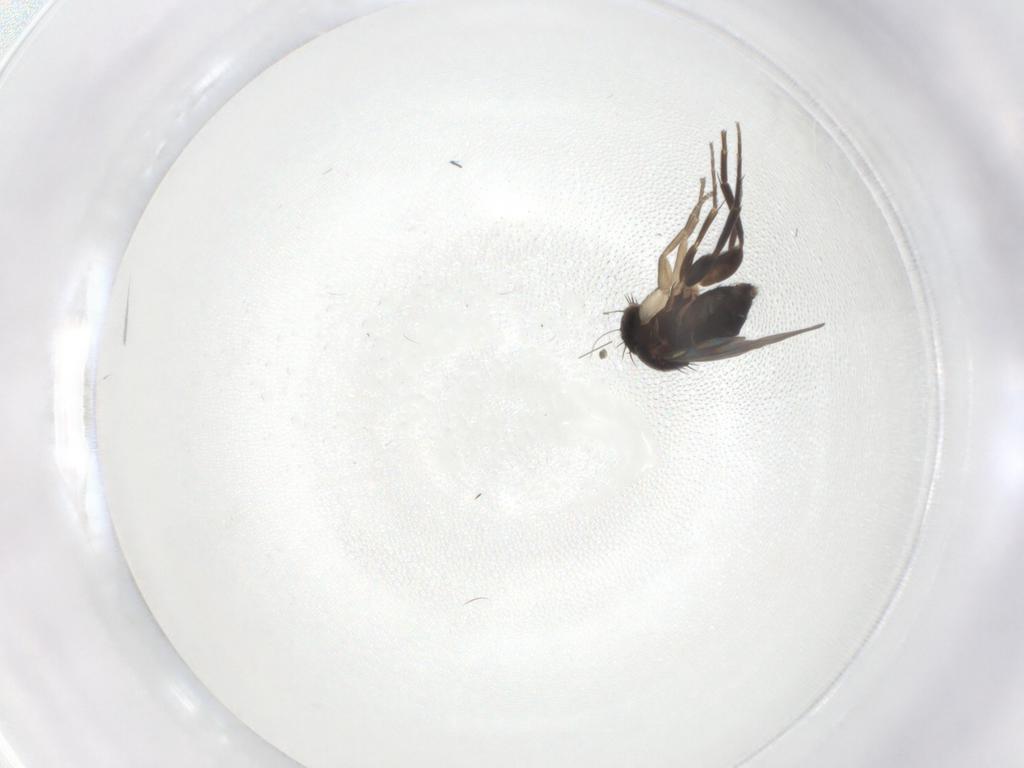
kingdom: Animalia
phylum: Arthropoda
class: Insecta
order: Diptera
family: Phoridae
